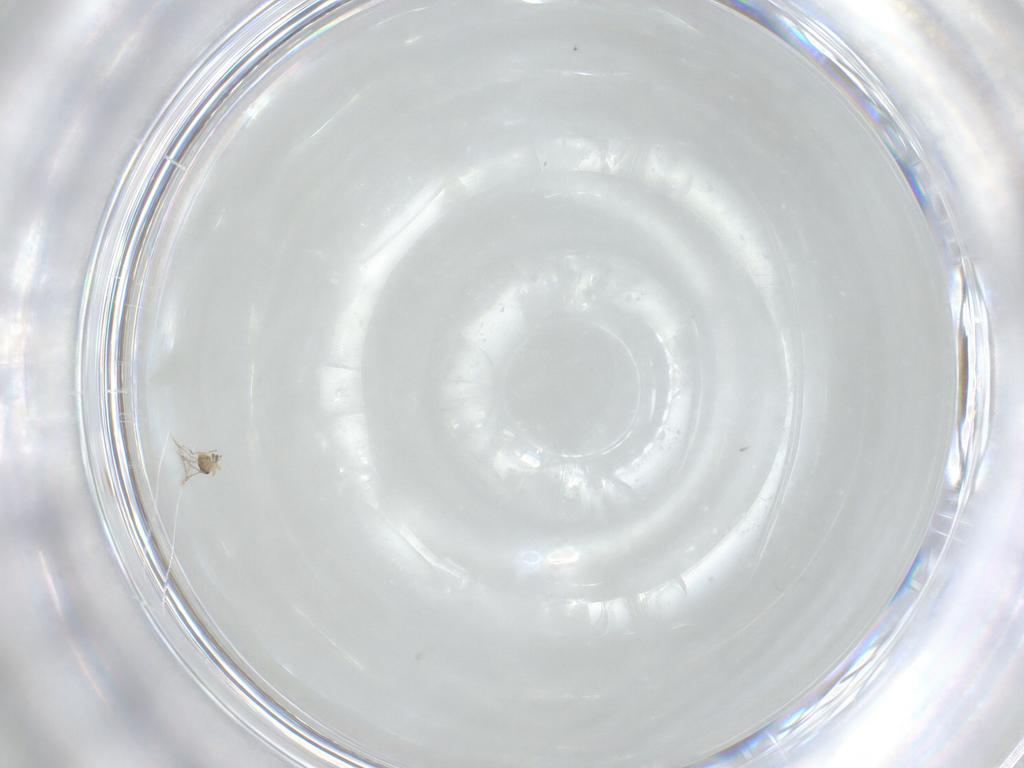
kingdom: Animalia
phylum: Arthropoda
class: Insecta
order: Hymenoptera
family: Mymaridae
